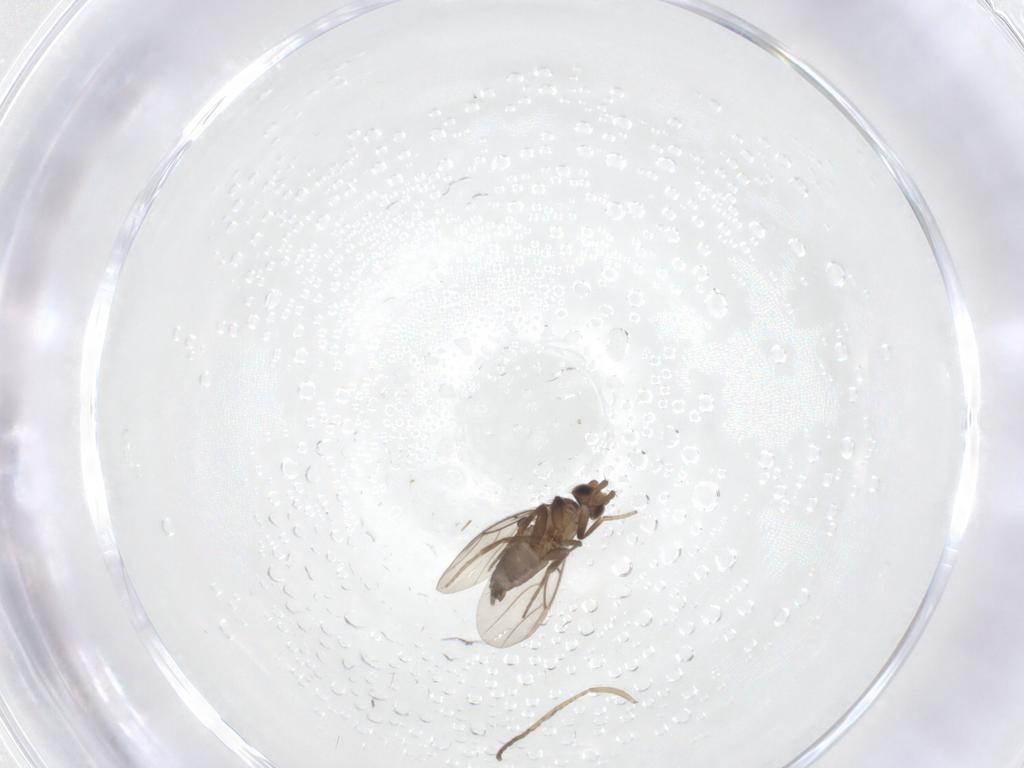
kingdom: Animalia
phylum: Arthropoda
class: Insecta
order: Diptera
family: Phoridae
